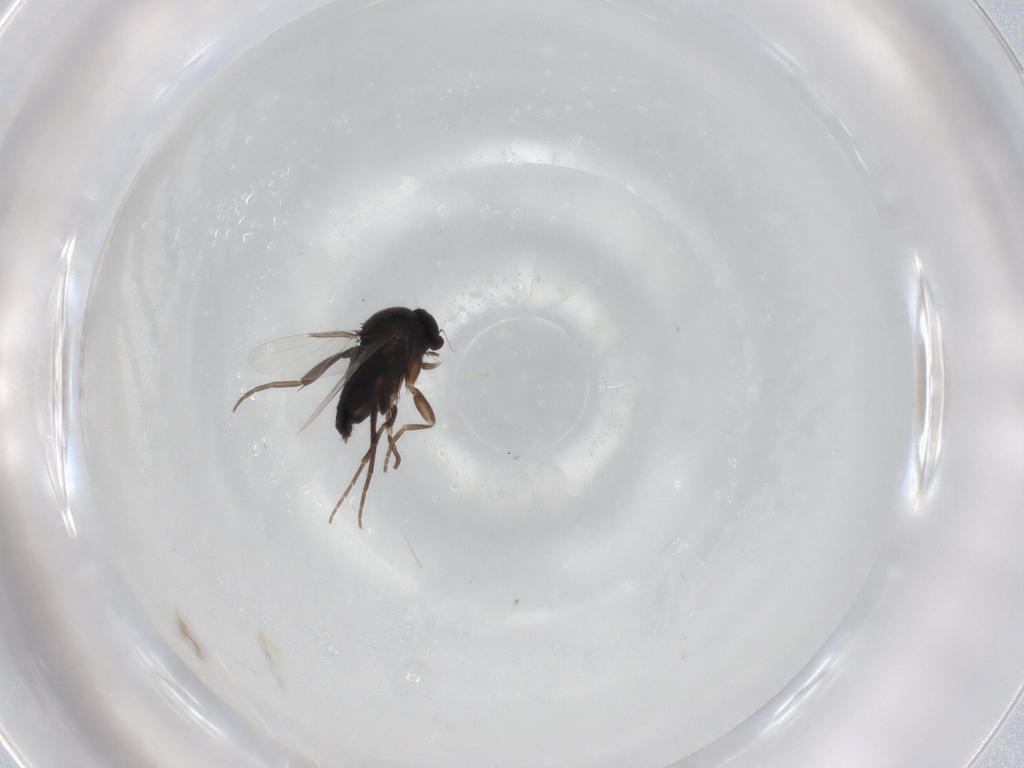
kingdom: Animalia
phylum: Arthropoda
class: Insecta
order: Diptera
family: Phoridae
